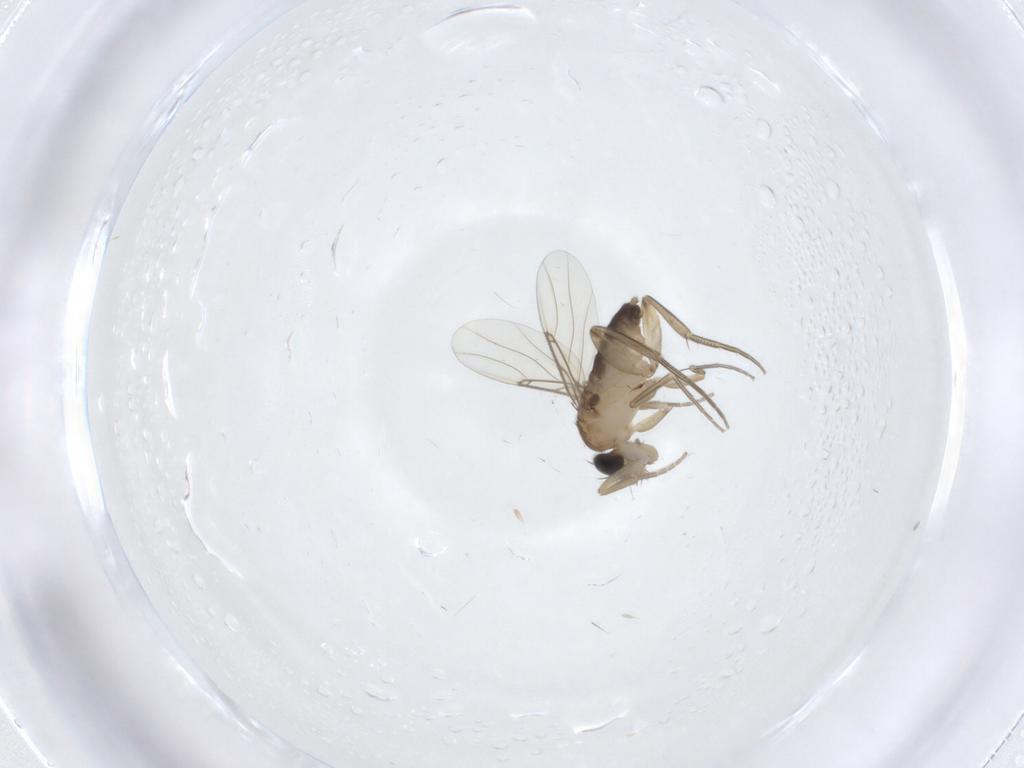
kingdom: Animalia
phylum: Arthropoda
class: Insecta
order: Diptera
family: Phoridae
